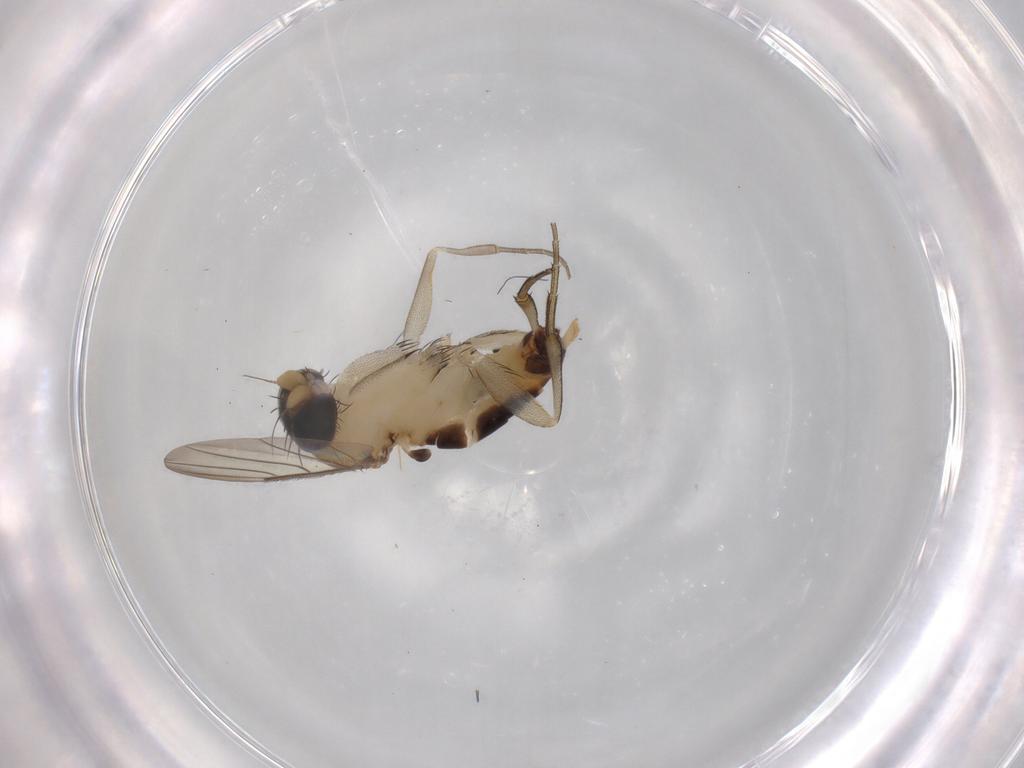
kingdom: Animalia
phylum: Arthropoda
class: Insecta
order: Diptera
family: Phoridae
